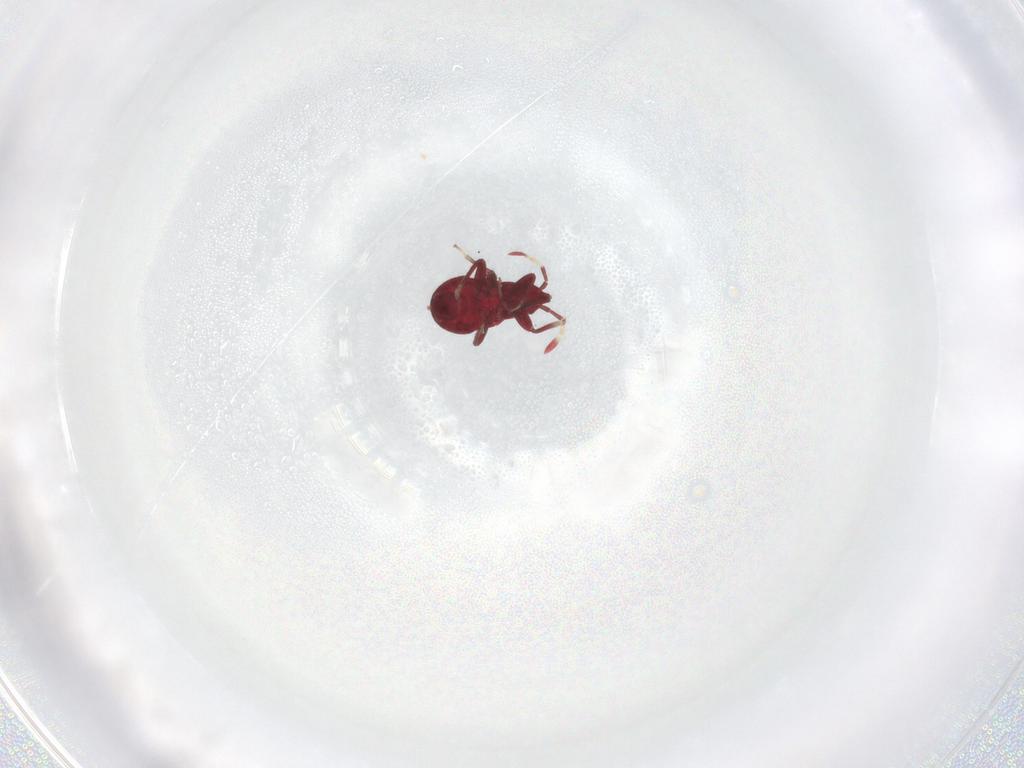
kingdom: Animalia
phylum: Arthropoda
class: Insecta
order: Hemiptera
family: Anthocoridae
